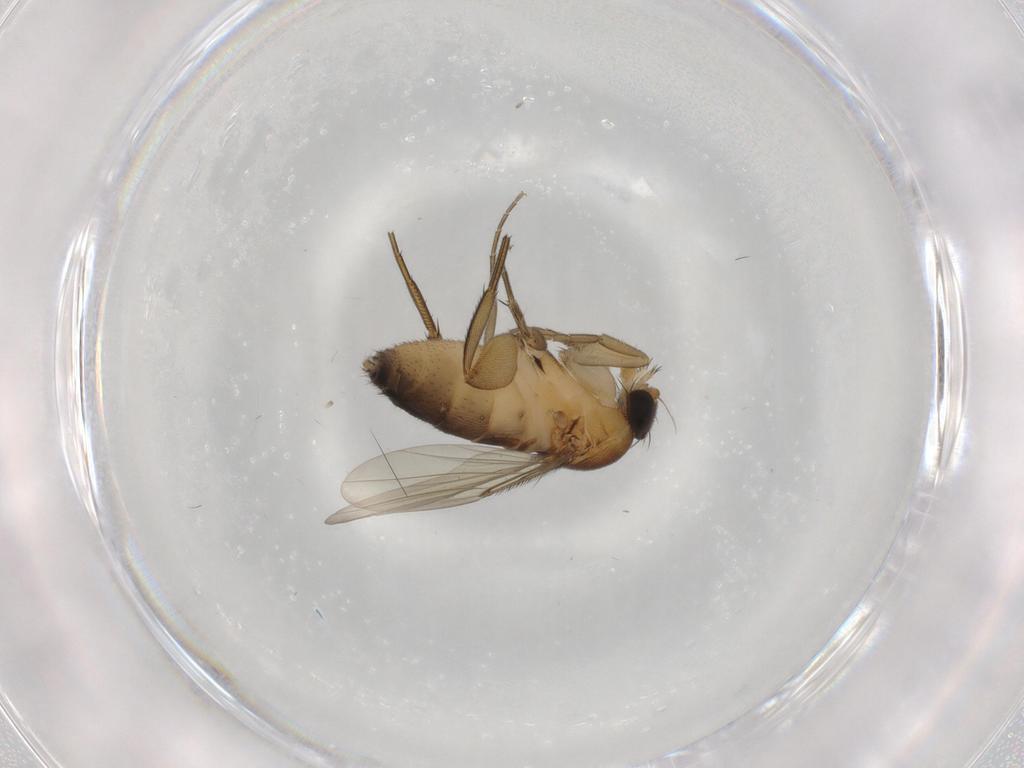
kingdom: Animalia
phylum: Arthropoda
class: Insecta
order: Diptera
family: Phoridae
